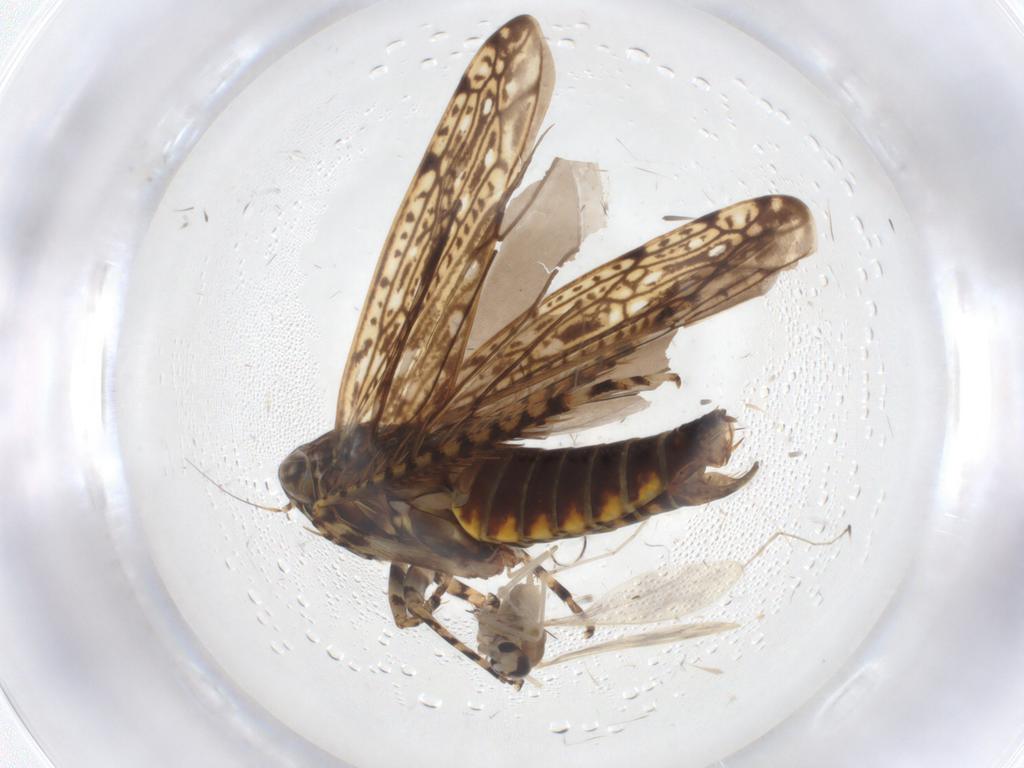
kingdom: Animalia
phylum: Arthropoda
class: Insecta
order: Hemiptera
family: Cicadellidae
